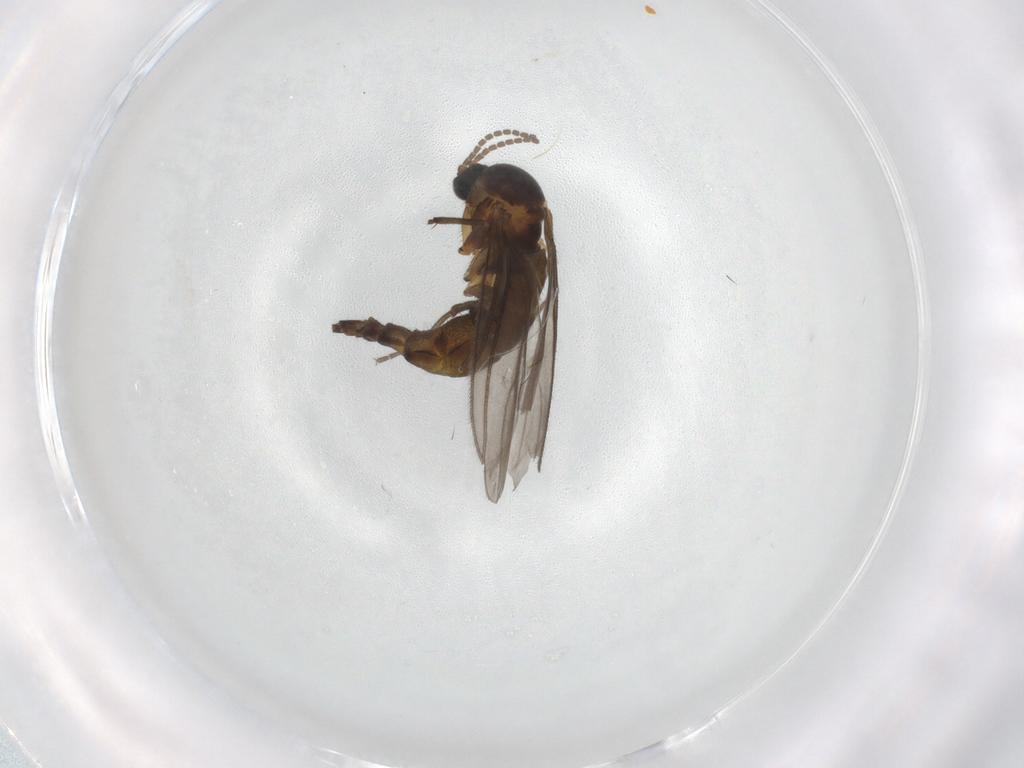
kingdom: Animalia
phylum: Arthropoda
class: Insecta
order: Diptera
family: Sciaridae
